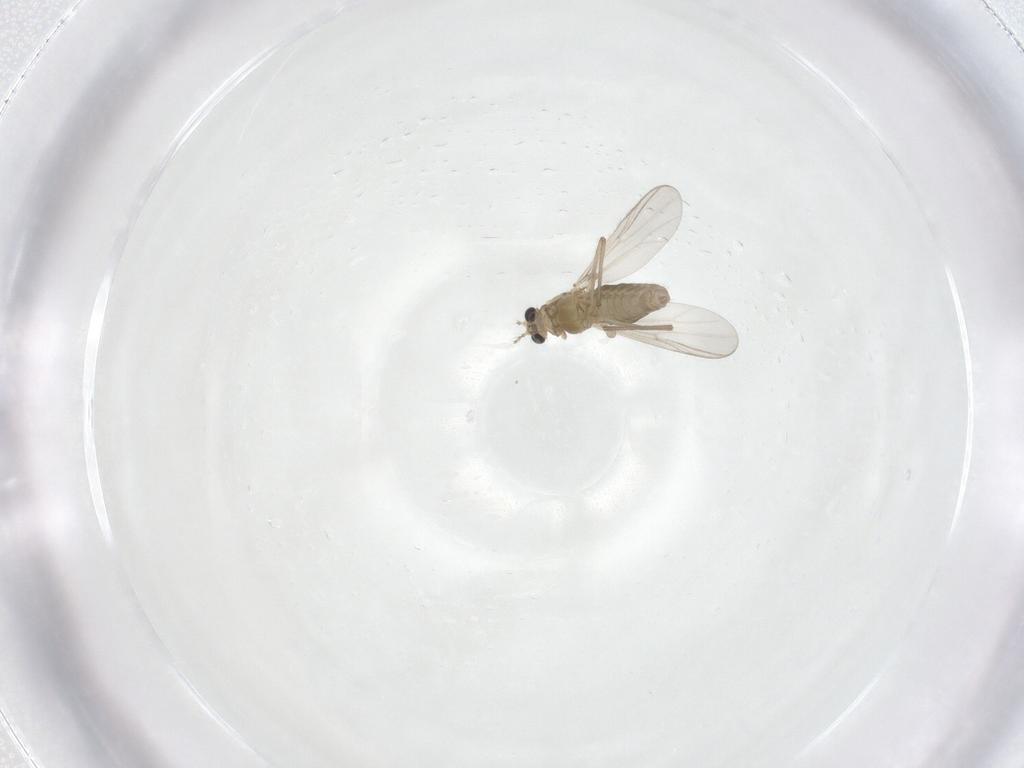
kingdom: Animalia
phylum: Arthropoda
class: Insecta
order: Diptera
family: Chironomidae
